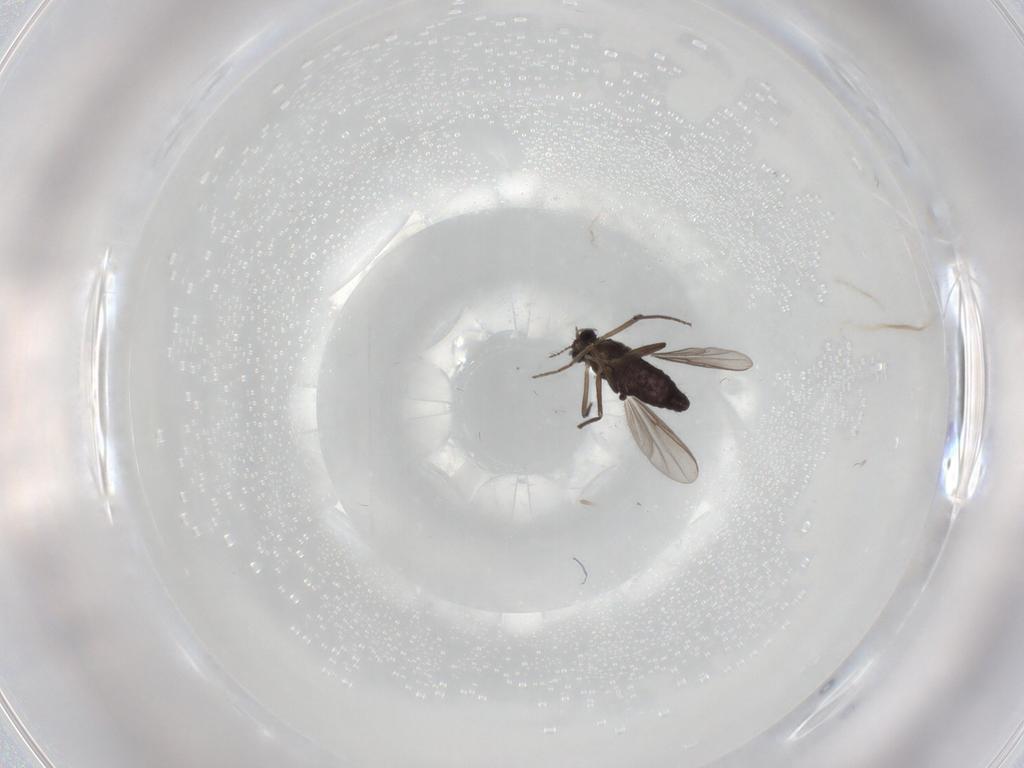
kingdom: Animalia
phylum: Arthropoda
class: Insecta
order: Diptera
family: Chironomidae
